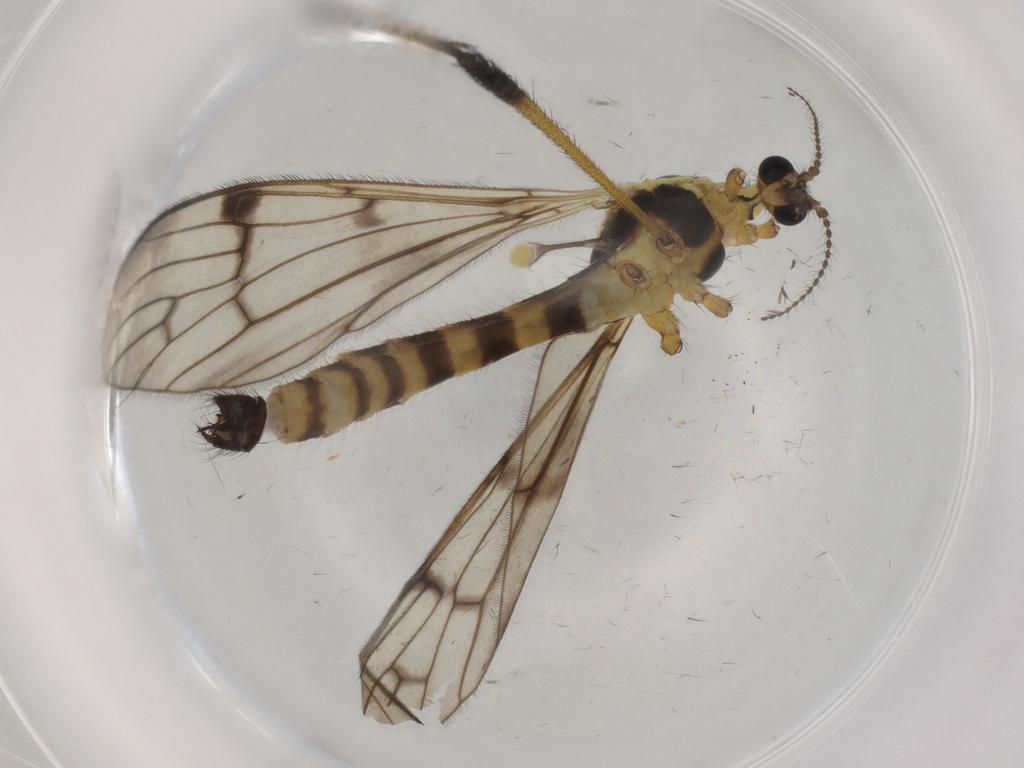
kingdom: Animalia
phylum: Arthropoda
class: Insecta
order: Diptera
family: Limoniidae
